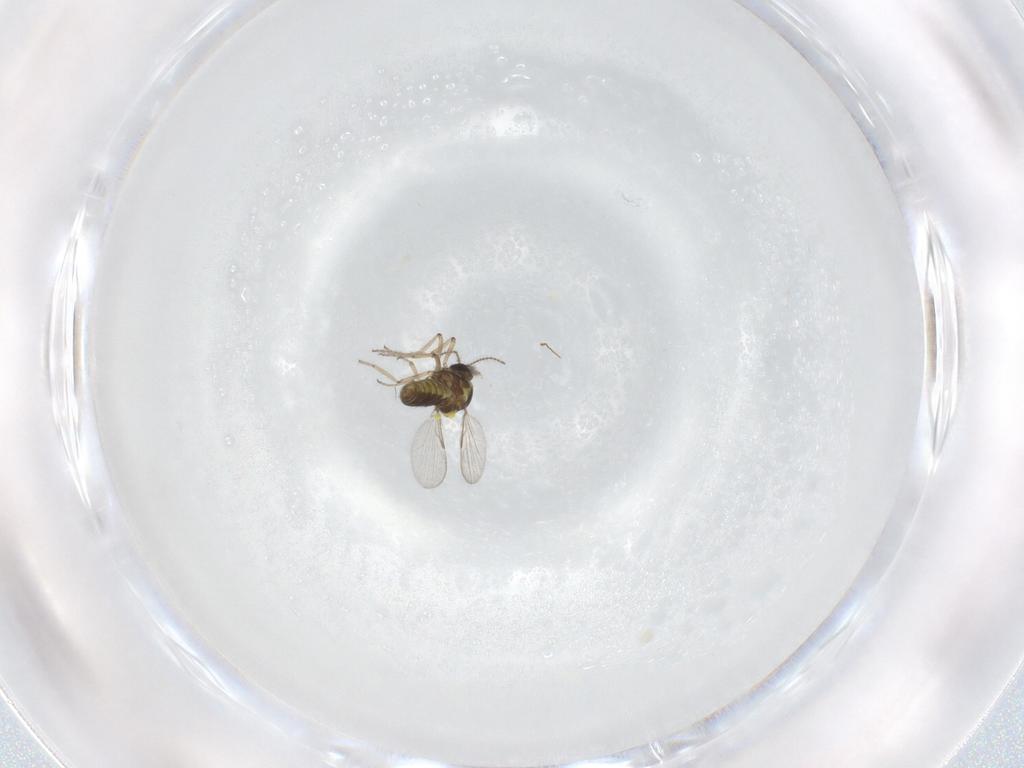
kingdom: Animalia
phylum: Arthropoda
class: Insecta
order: Diptera
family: Ceratopogonidae
